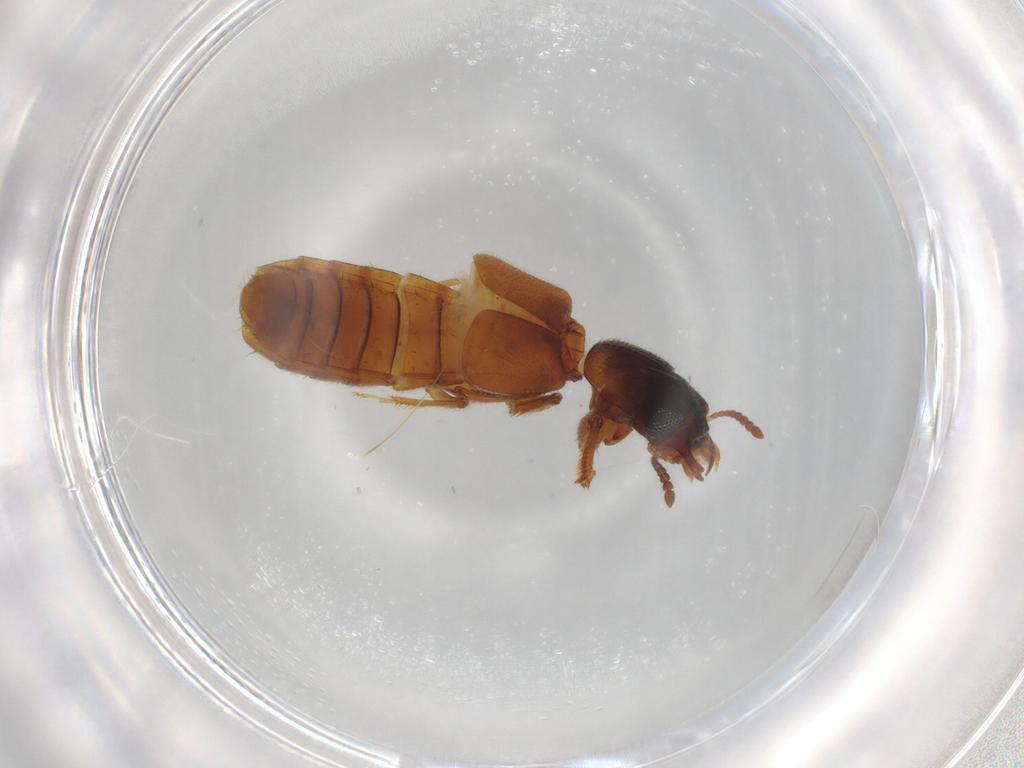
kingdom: Animalia
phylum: Arthropoda
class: Insecta
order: Coleoptera
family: Staphylinidae
